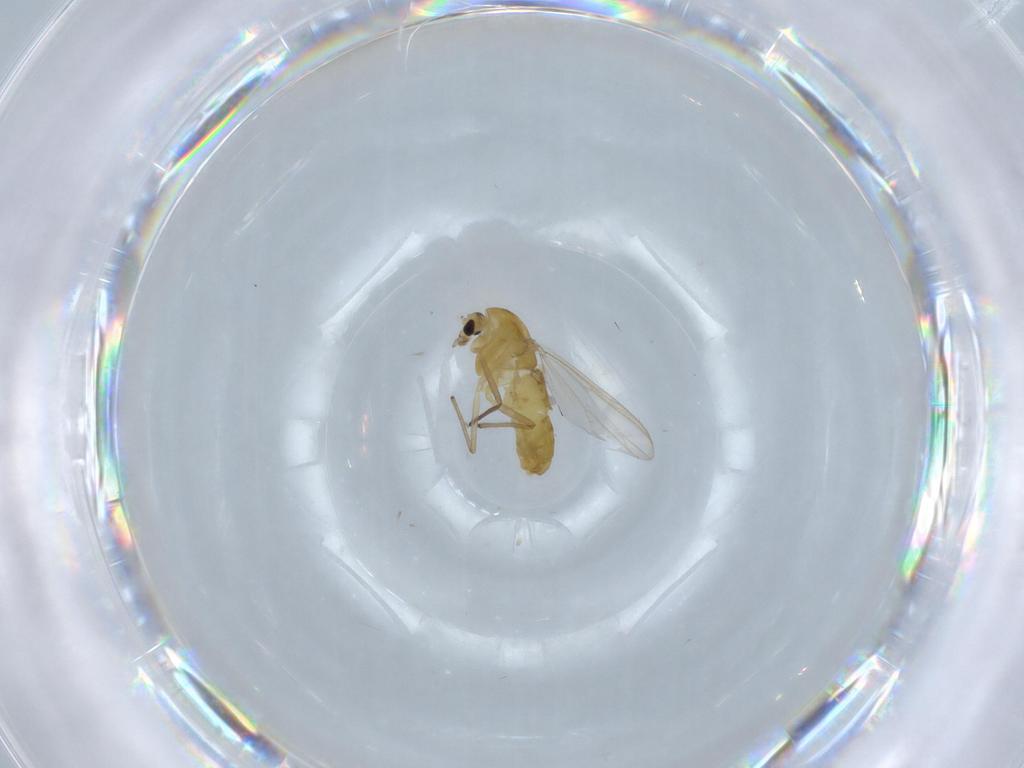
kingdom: Animalia
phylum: Arthropoda
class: Insecta
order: Diptera
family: Chironomidae
